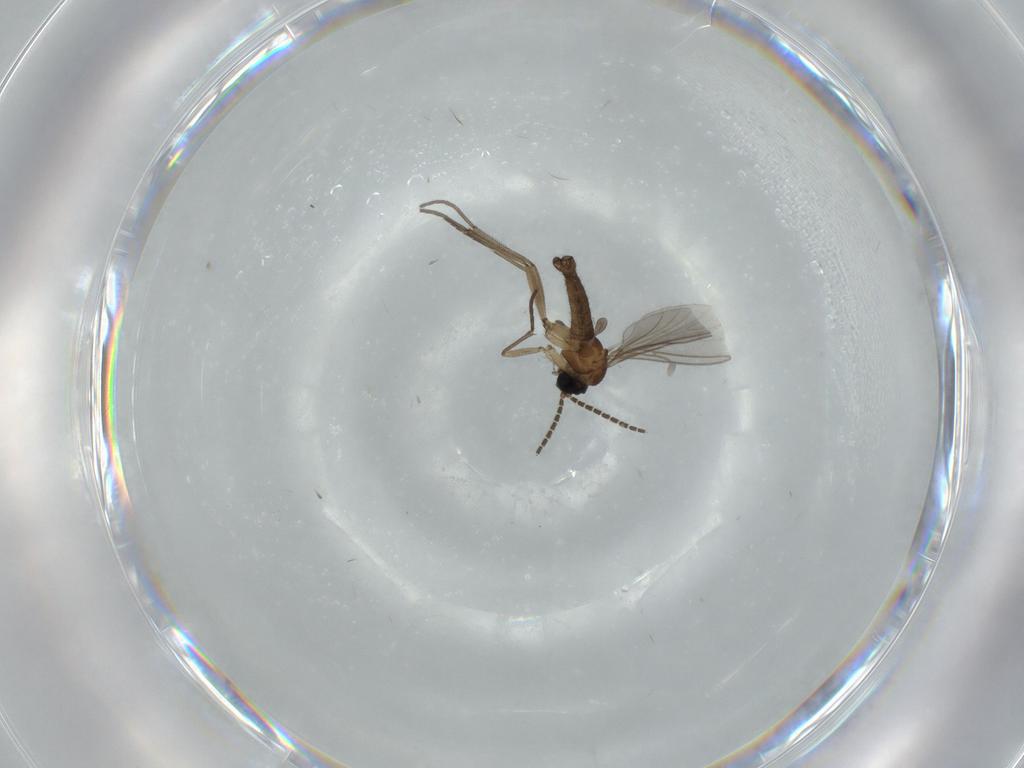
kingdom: Animalia
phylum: Arthropoda
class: Insecta
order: Diptera
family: Sciaridae
